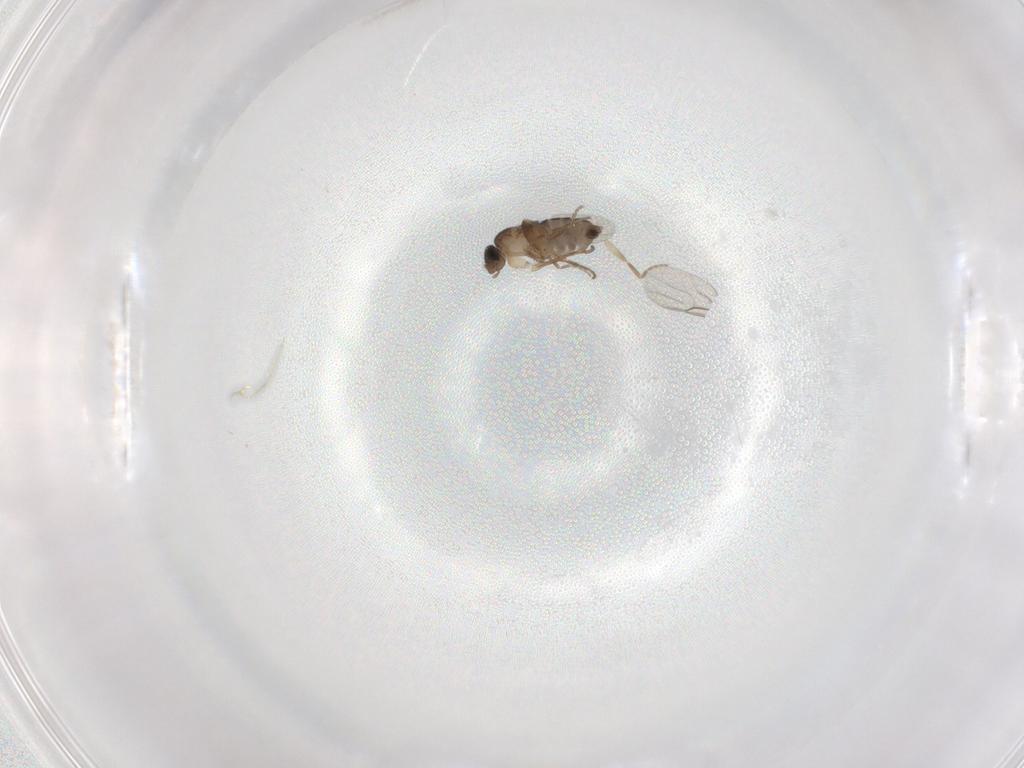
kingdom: Animalia
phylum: Arthropoda
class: Insecta
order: Diptera
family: Phoridae
